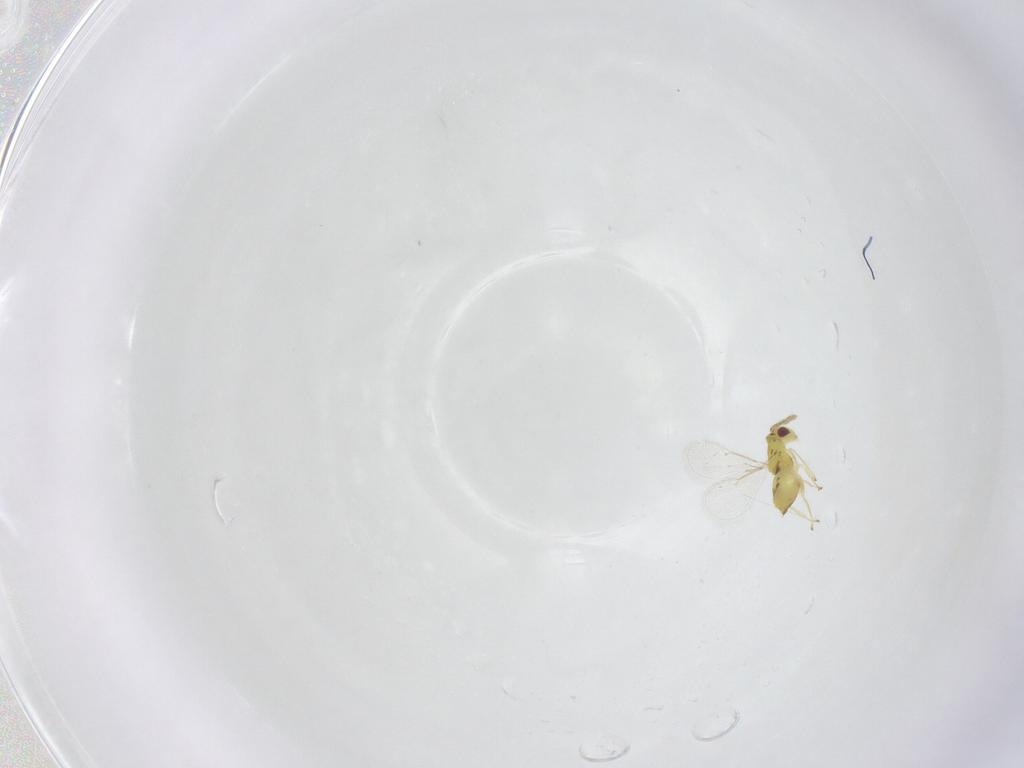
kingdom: Animalia
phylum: Arthropoda
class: Insecta
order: Hymenoptera
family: Eulophidae
